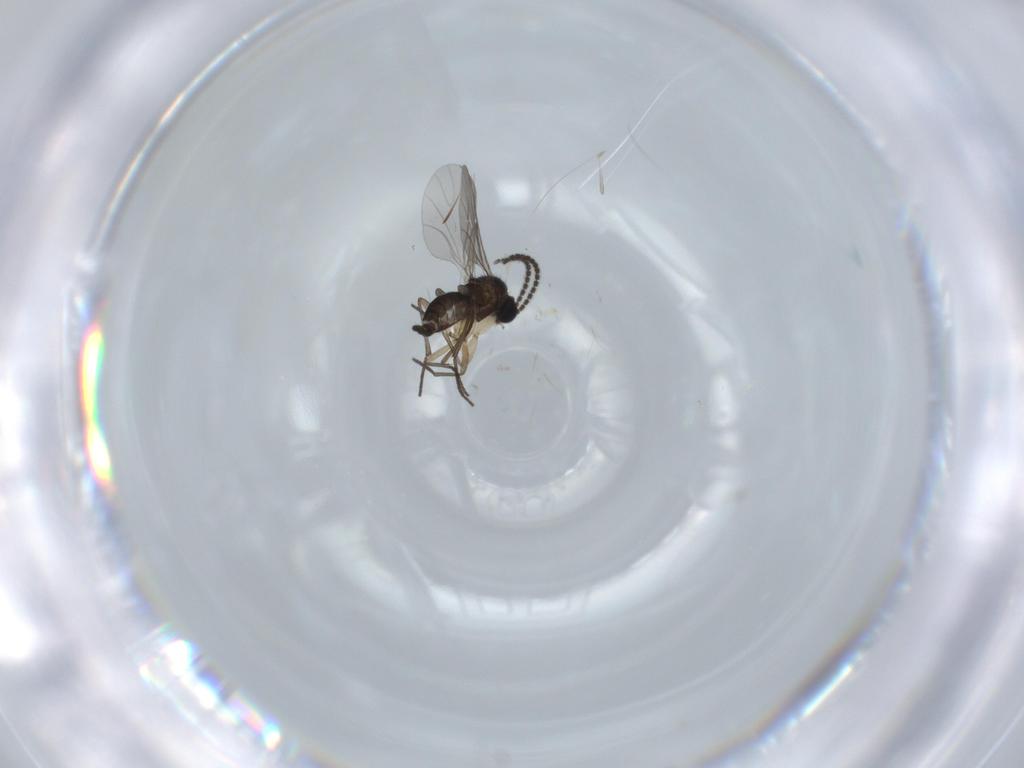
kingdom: Animalia
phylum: Arthropoda
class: Insecta
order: Diptera
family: Sciaridae
